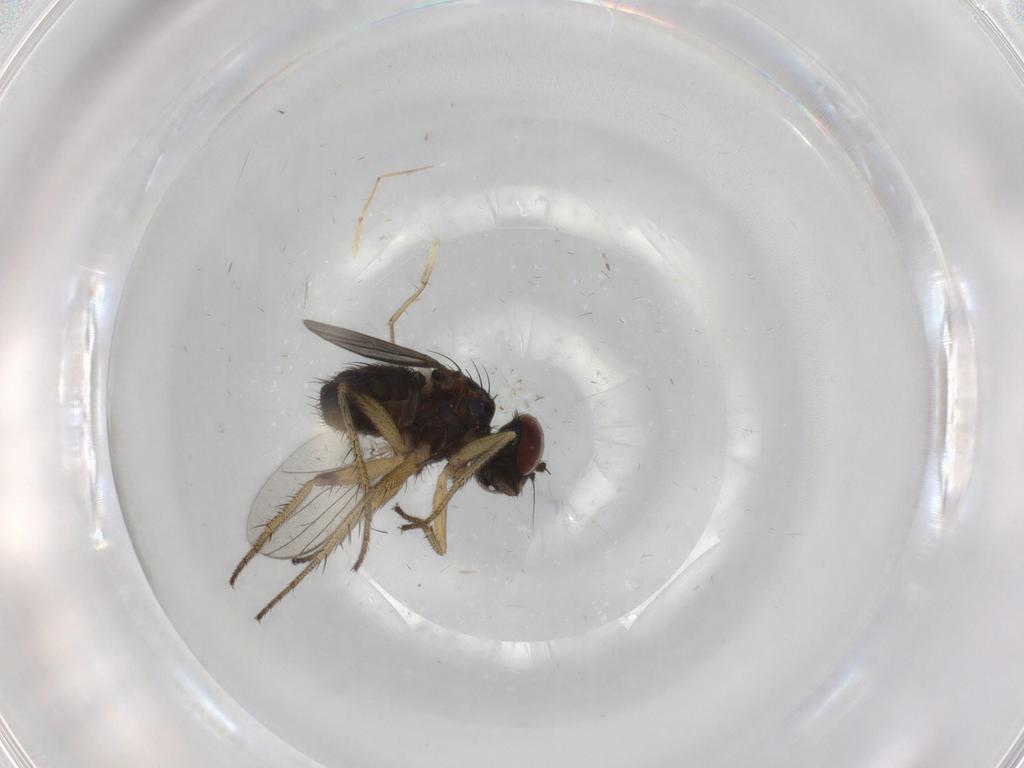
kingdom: Animalia
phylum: Arthropoda
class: Insecta
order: Diptera
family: Dolichopodidae
